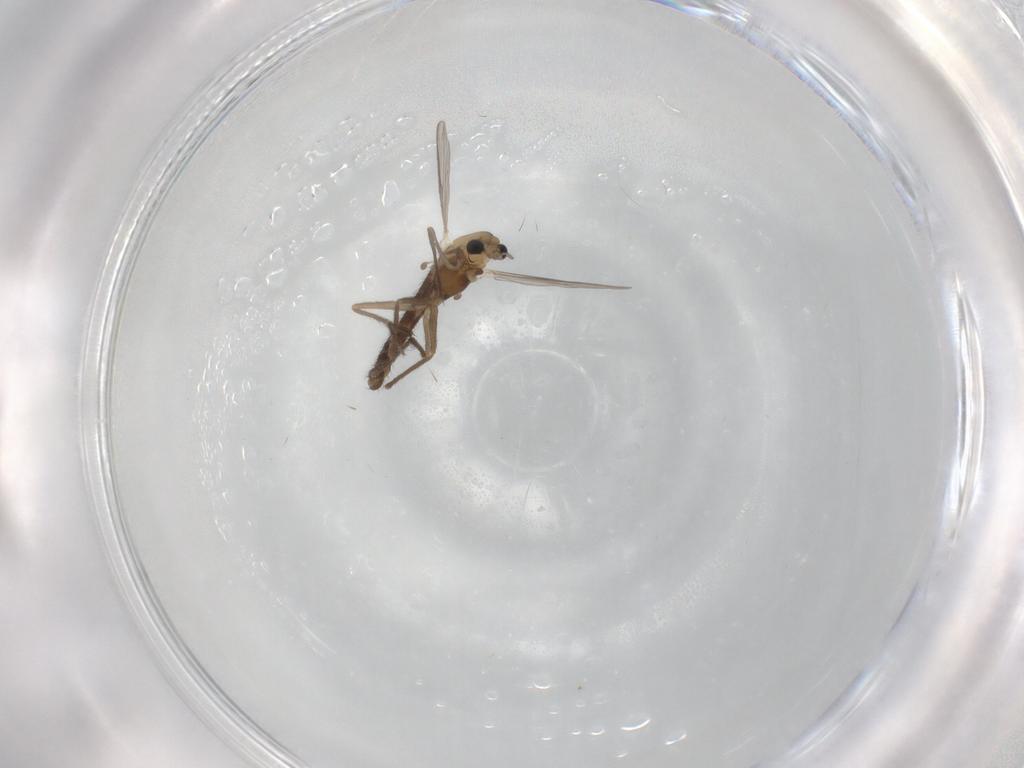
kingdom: Animalia
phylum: Arthropoda
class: Insecta
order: Diptera
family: Chironomidae
